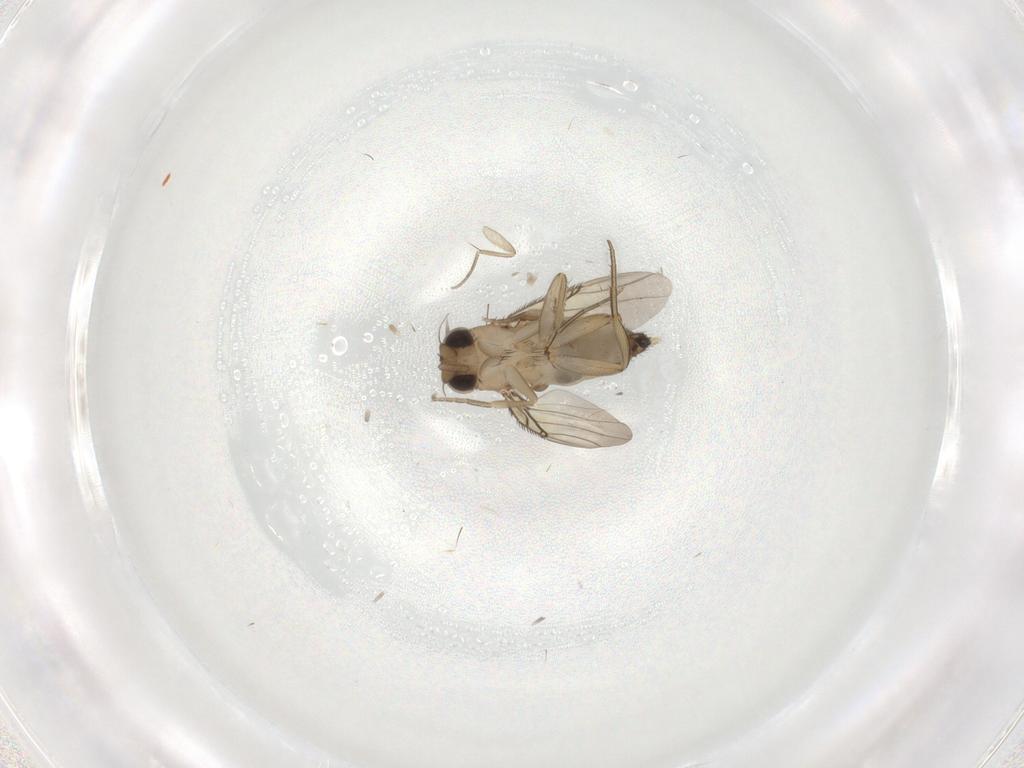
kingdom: Animalia
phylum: Arthropoda
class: Insecta
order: Diptera
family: Phoridae
